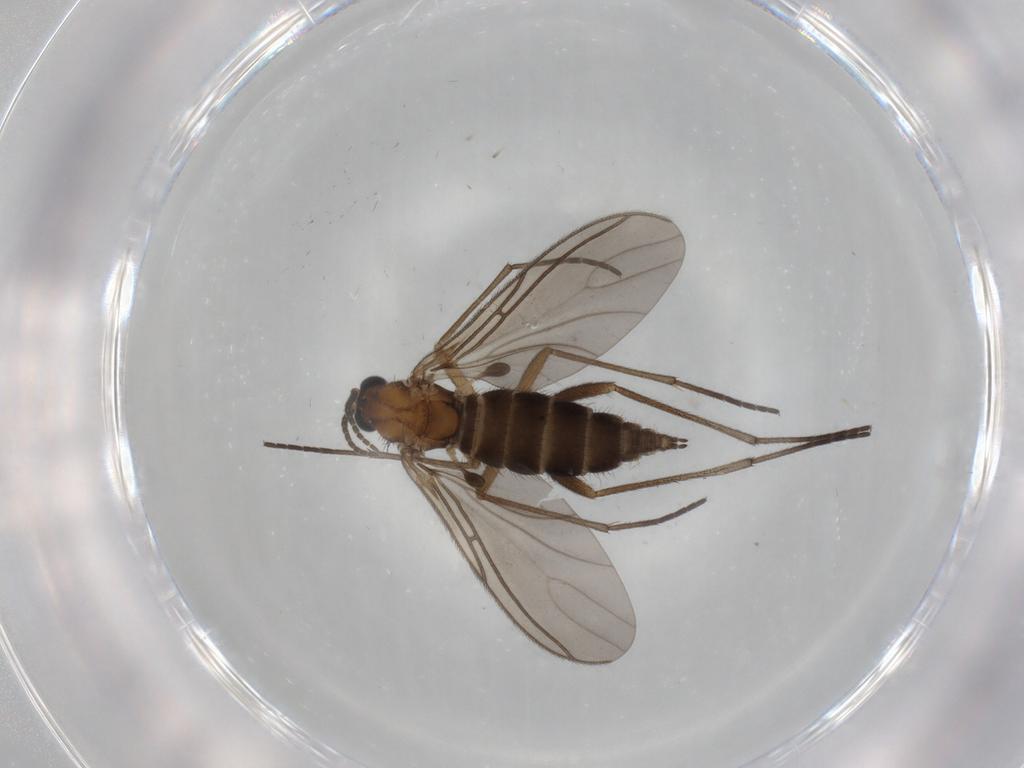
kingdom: Animalia
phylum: Arthropoda
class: Insecta
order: Diptera
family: Sciaridae
